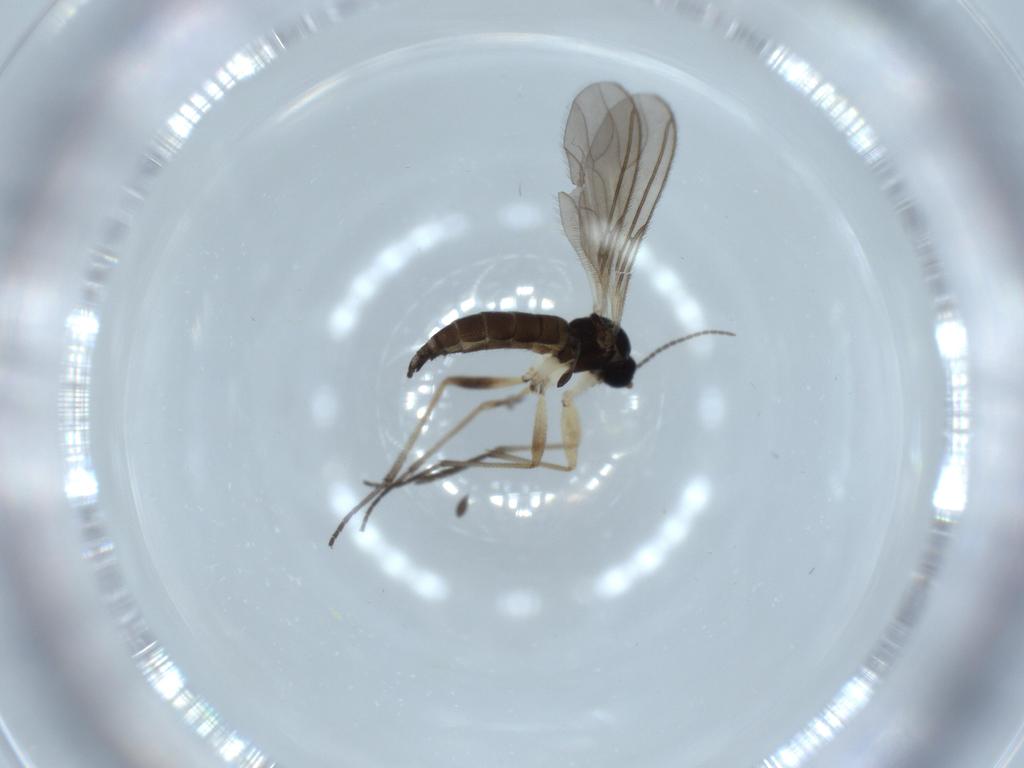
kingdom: Animalia
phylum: Arthropoda
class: Insecta
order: Diptera
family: Sciaridae
